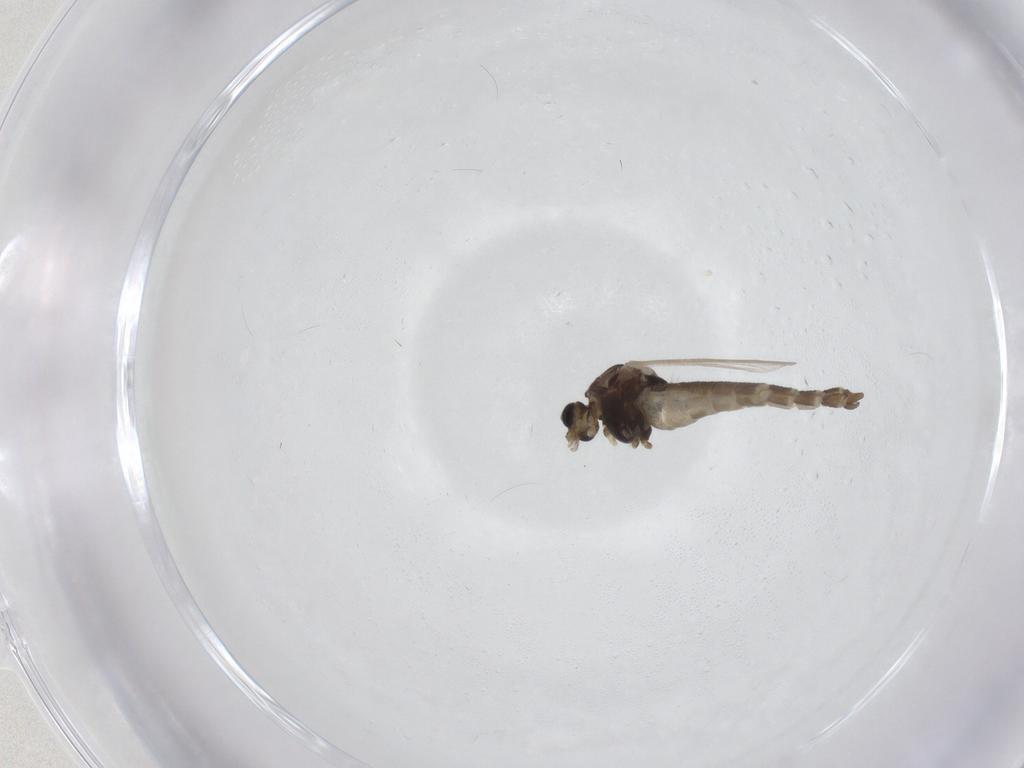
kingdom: Animalia
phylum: Arthropoda
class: Insecta
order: Diptera
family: Chironomidae
